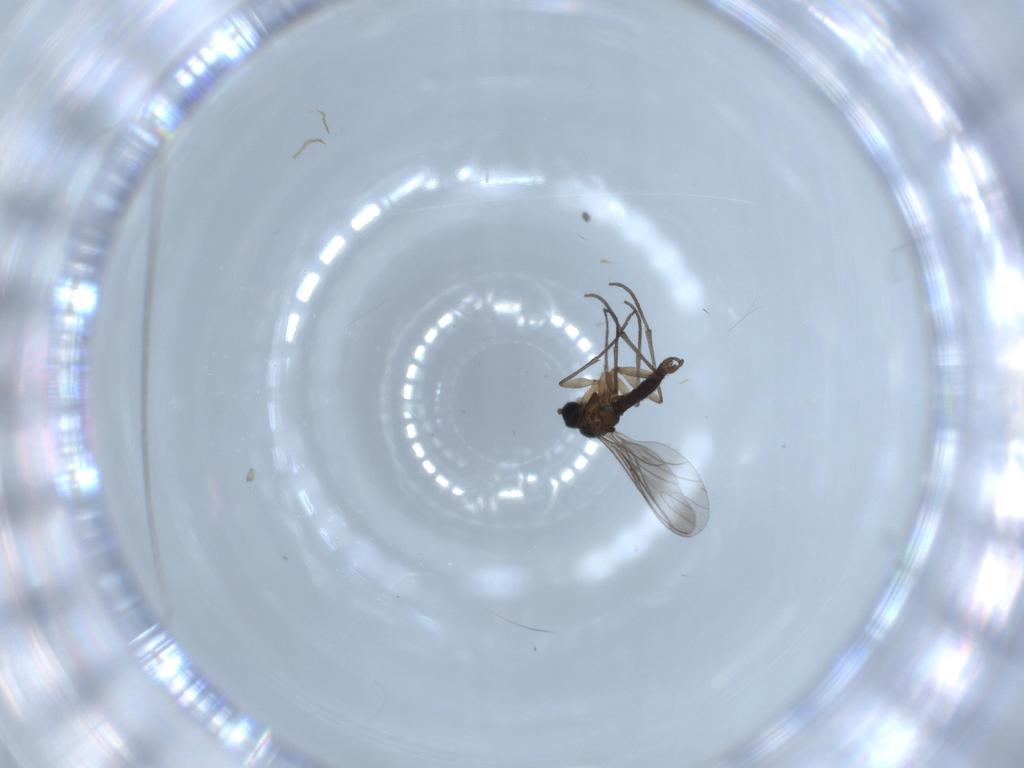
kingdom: Animalia
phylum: Arthropoda
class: Insecta
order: Diptera
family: Sciaridae
